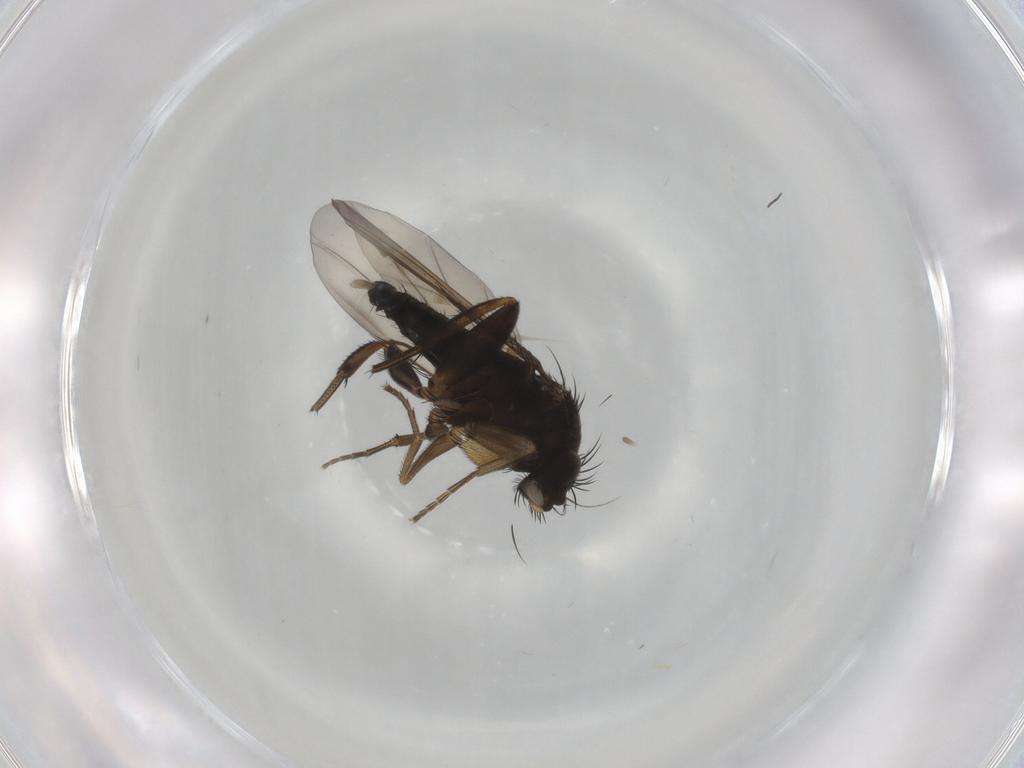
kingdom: Animalia
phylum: Arthropoda
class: Insecta
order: Diptera
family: Phoridae
